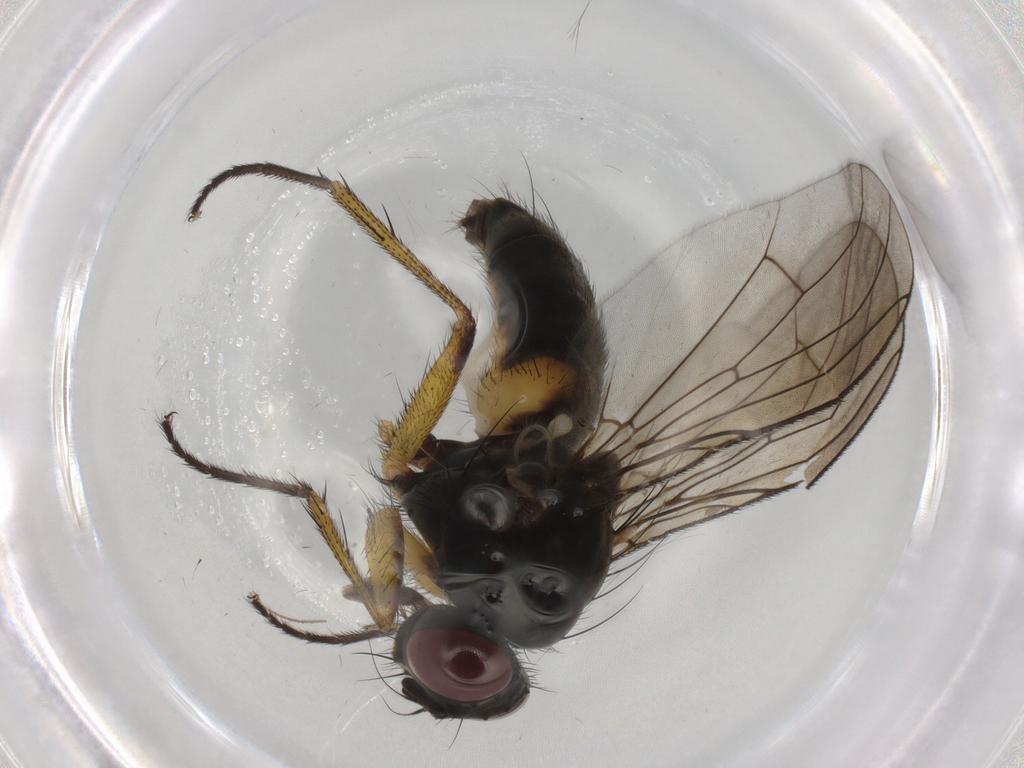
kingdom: Animalia
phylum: Arthropoda
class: Insecta
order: Diptera
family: Muscidae
